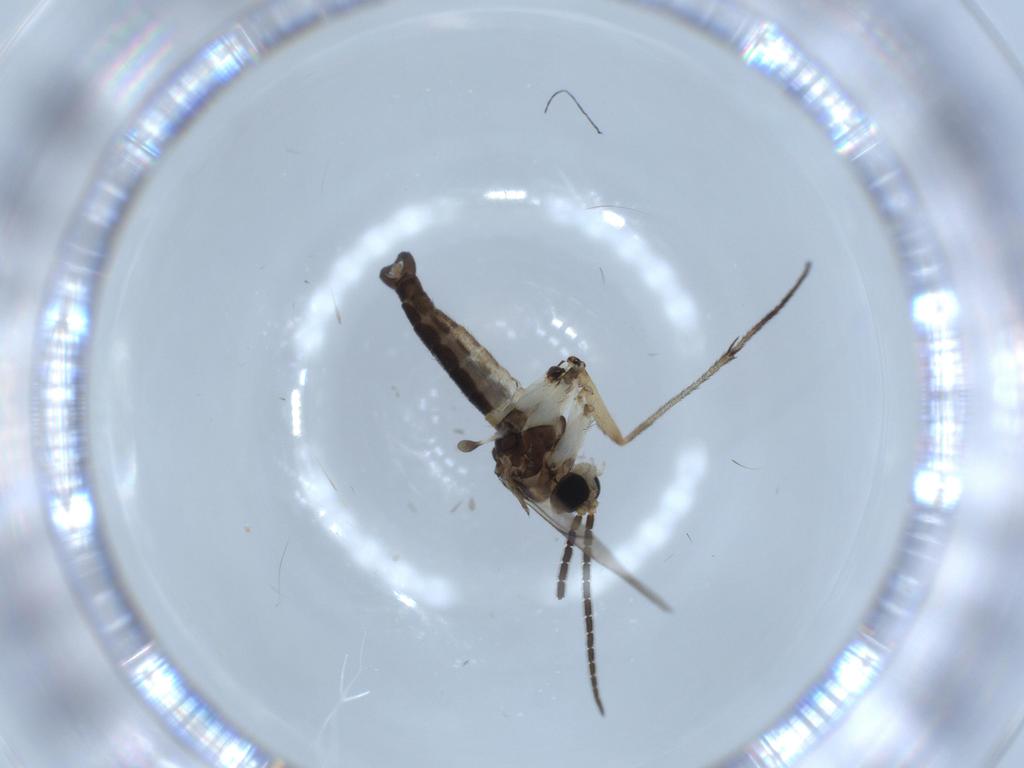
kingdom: Animalia
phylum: Arthropoda
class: Insecta
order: Diptera
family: Sciaridae
